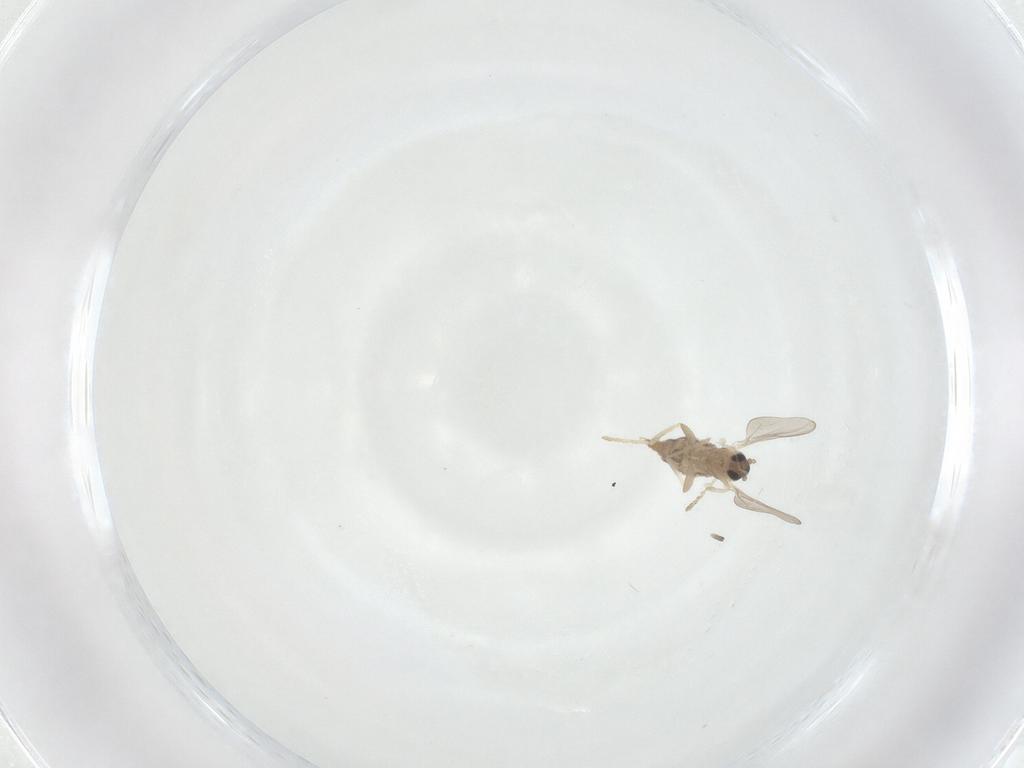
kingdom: Animalia
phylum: Arthropoda
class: Insecta
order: Diptera
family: Cecidomyiidae
